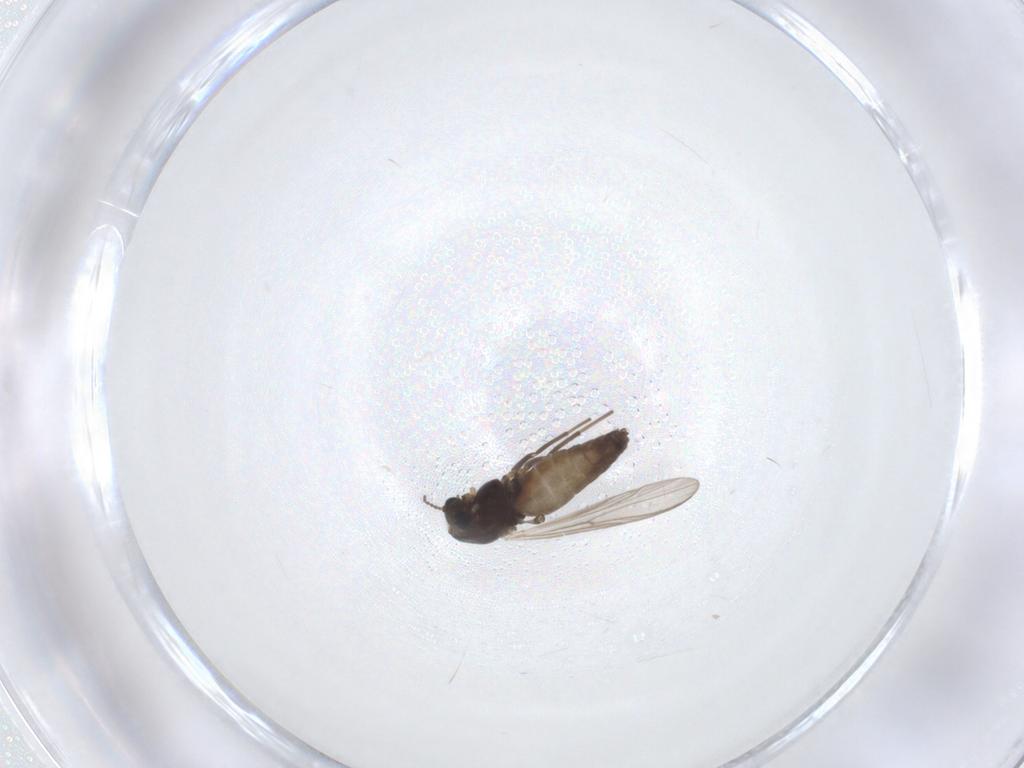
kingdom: Animalia
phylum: Arthropoda
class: Insecta
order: Diptera
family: Chironomidae
